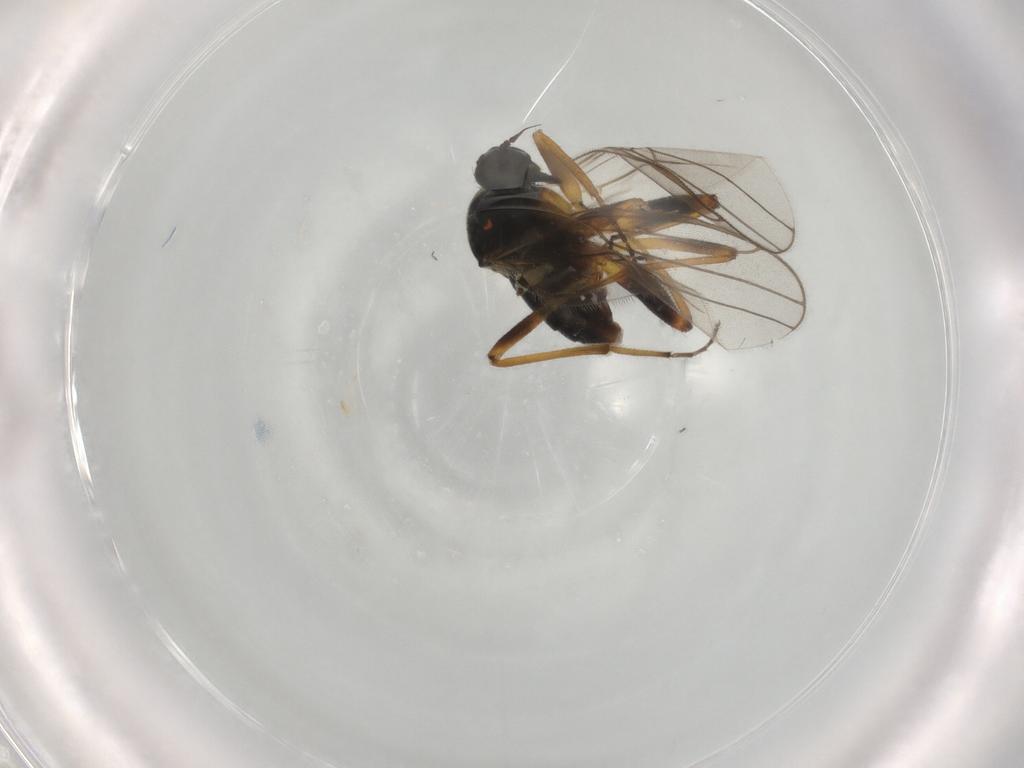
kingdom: Animalia
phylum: Arthropoda
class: Insecta
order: Diptera
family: Hybotidae
